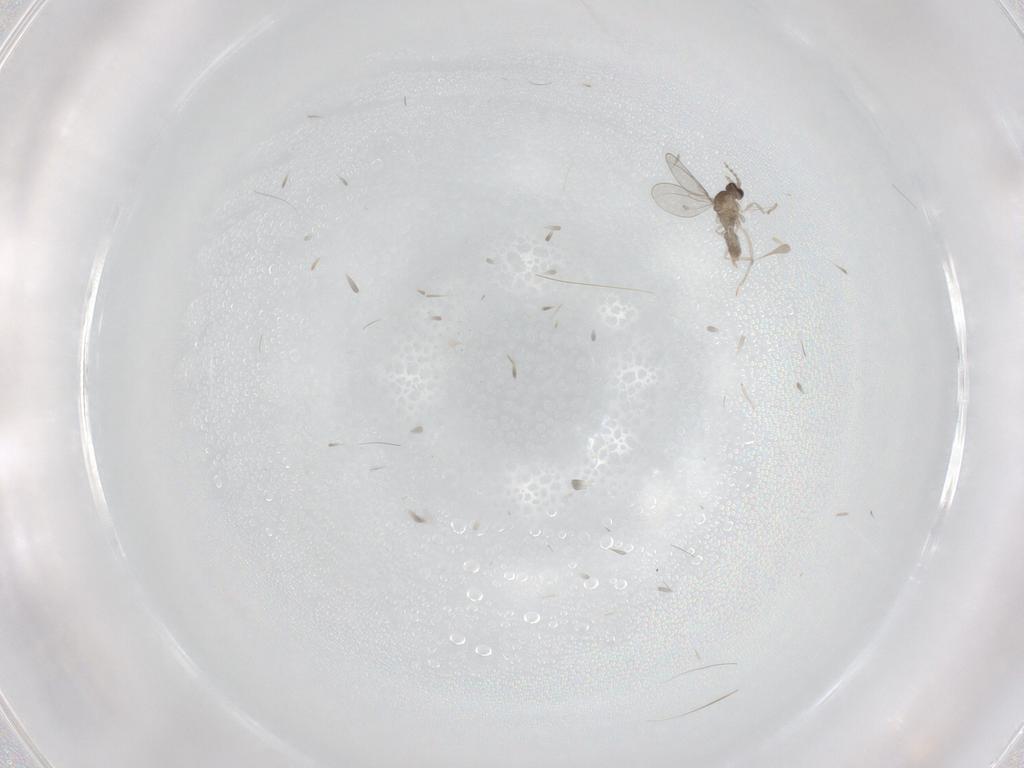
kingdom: Animalia
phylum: Arthropoda
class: Insecta
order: Diptera
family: Cecidomyiidae
